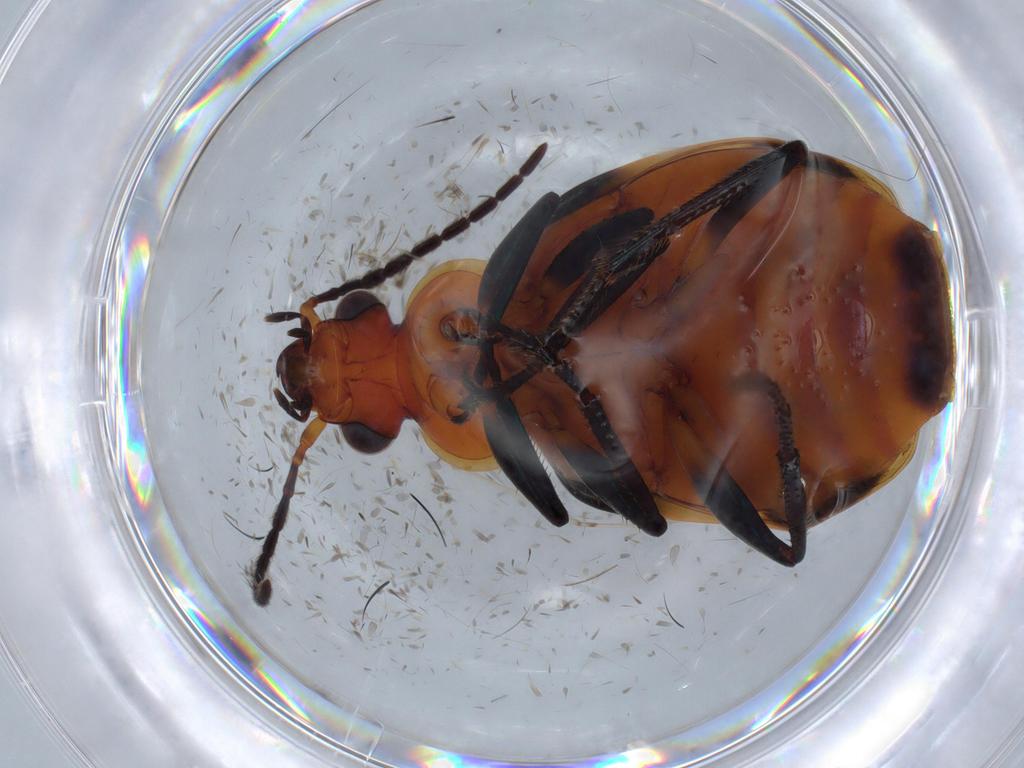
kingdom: Animalia
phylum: Arthropoda
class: Insecta
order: Coleoptera
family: Carabidae
